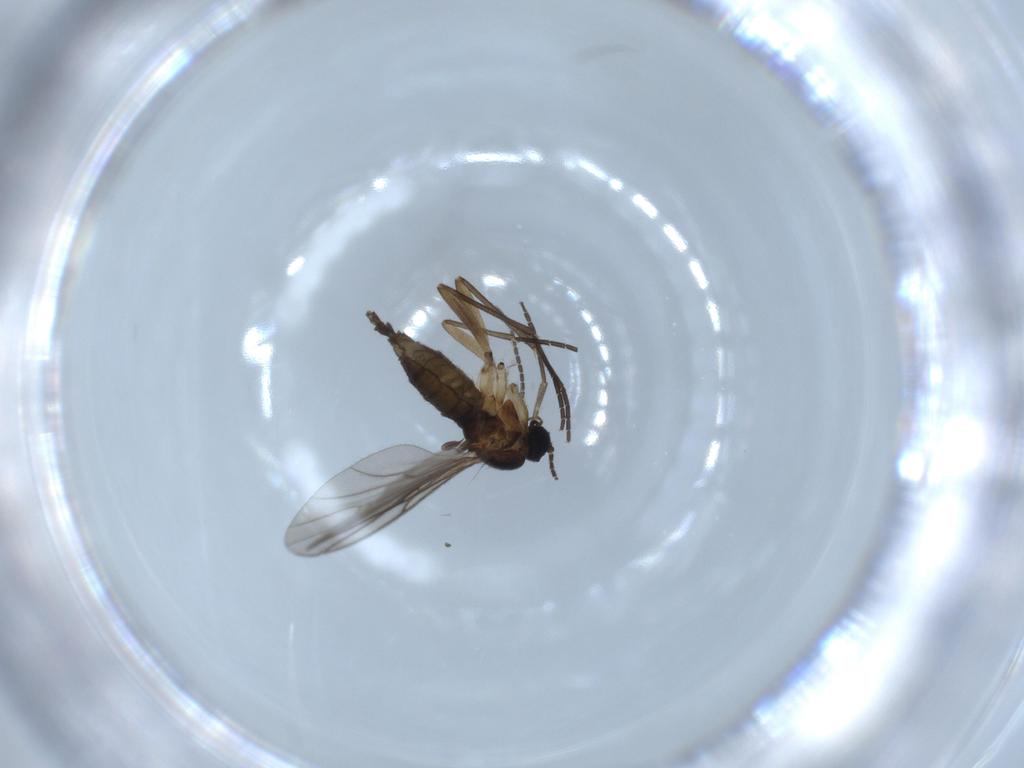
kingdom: Animalia
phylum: Arthropoda
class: Insecta
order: Diptera
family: Sciaridae
